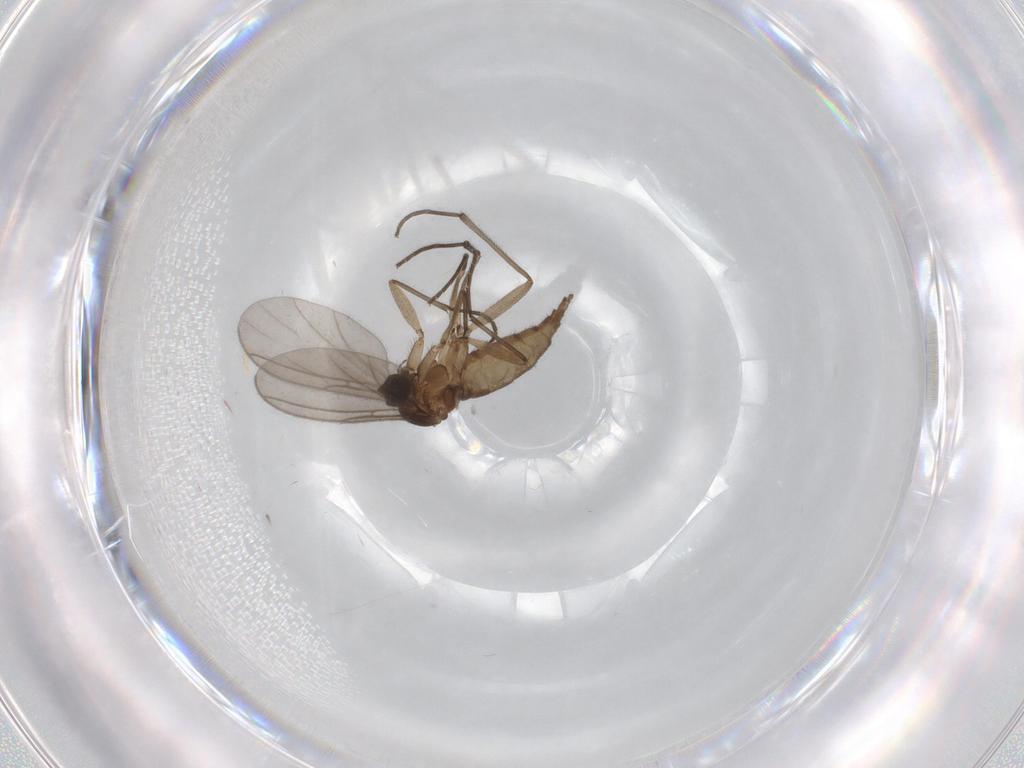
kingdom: Animalia
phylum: Arthropoda
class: Insecta
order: Diptera
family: Sciaridae
